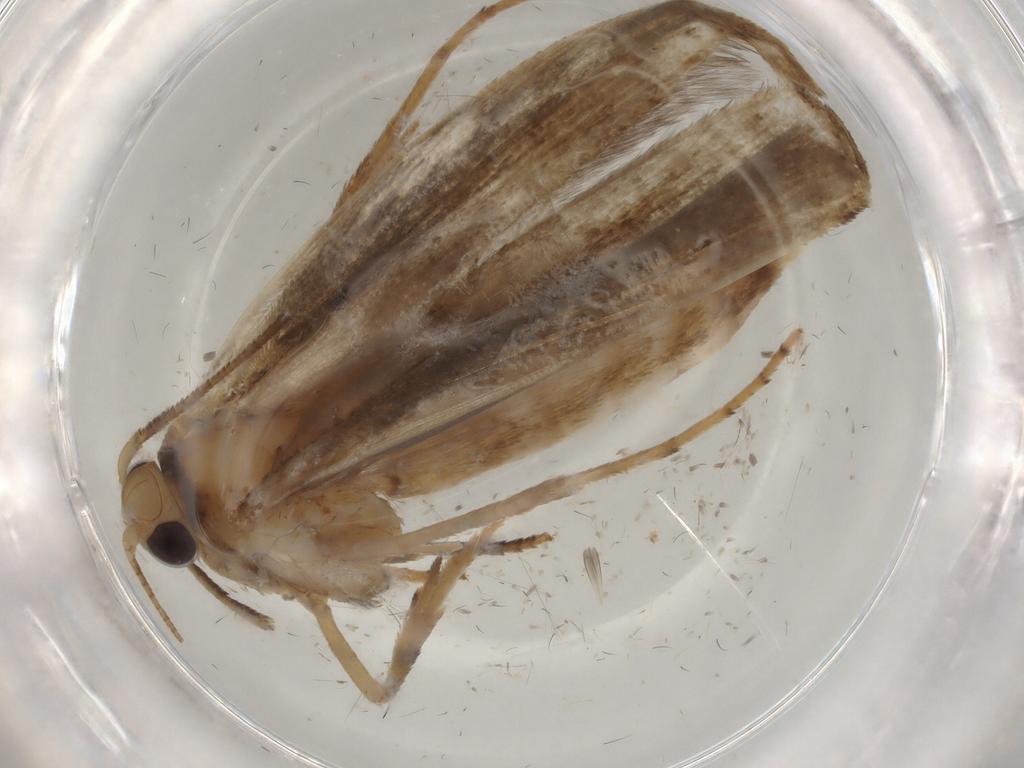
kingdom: Animalia
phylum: Arthropoda
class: Insecta
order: Lepidoptera
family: Yponomeutidae
